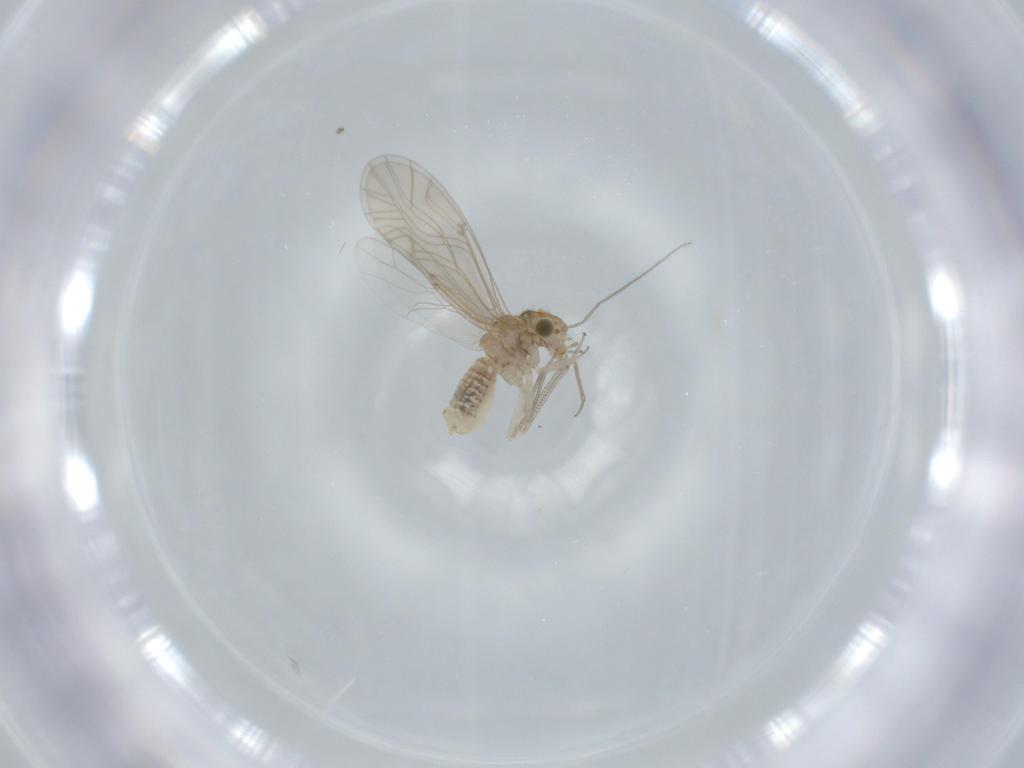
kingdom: Animalia
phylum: Arthropoda
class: Insecta
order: Psocodea
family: Lachesillidae
